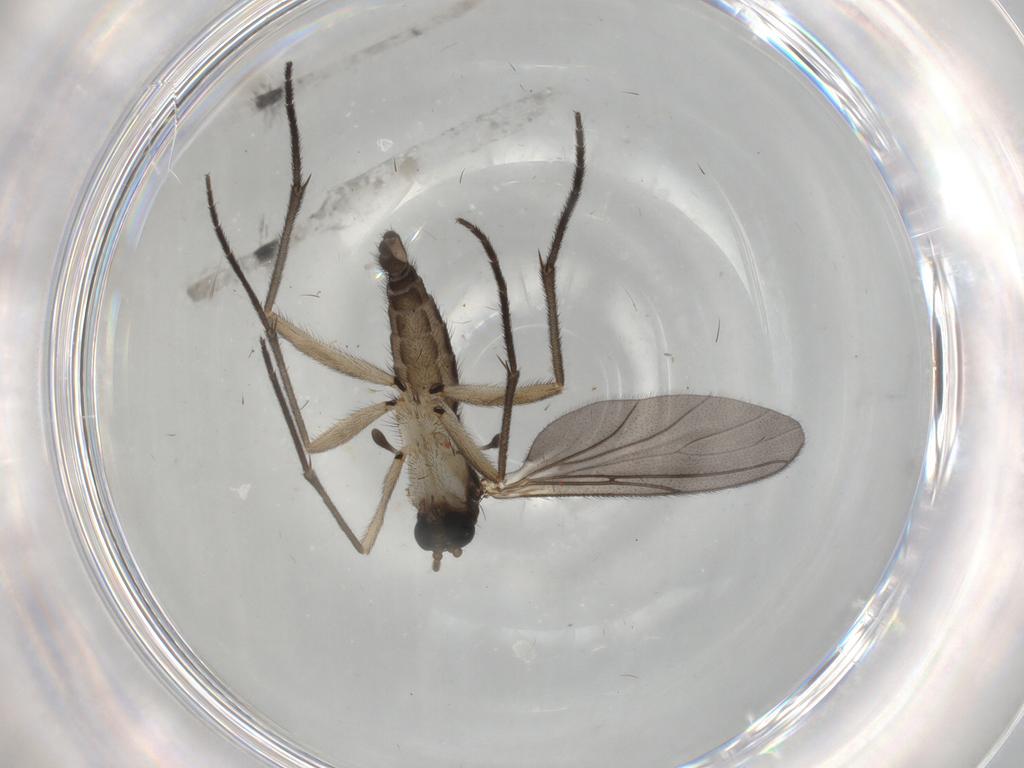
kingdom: Animalia
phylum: Arthropoda
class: Insecta
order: Diptera
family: Sciaridae
